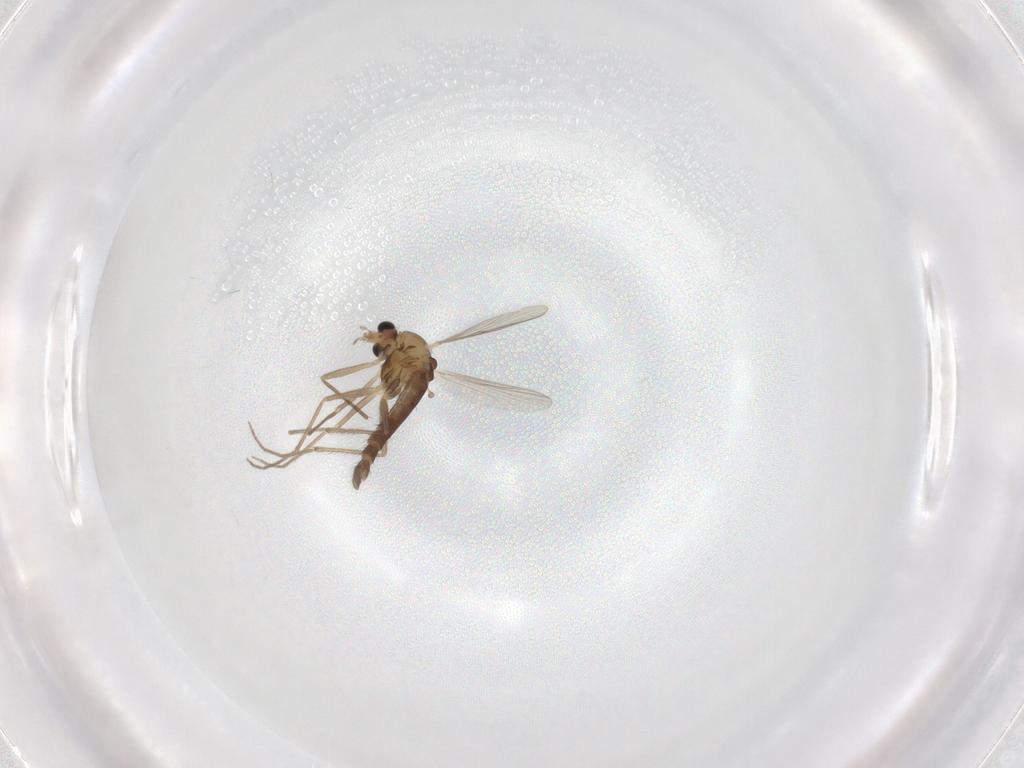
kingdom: Animalia
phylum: Arthropoda
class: Insecta
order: Diptera
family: Chironomidae
